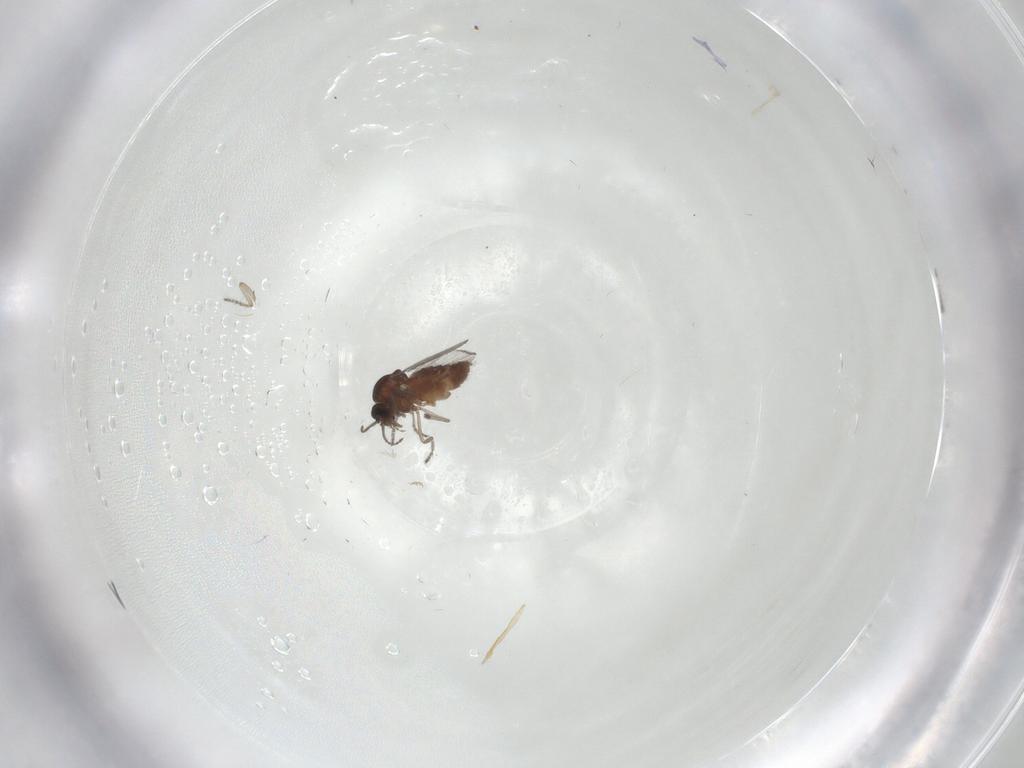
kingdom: Animalia
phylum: Arthropoda
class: Insecta
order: Diptera
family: Ceratopogonidae
